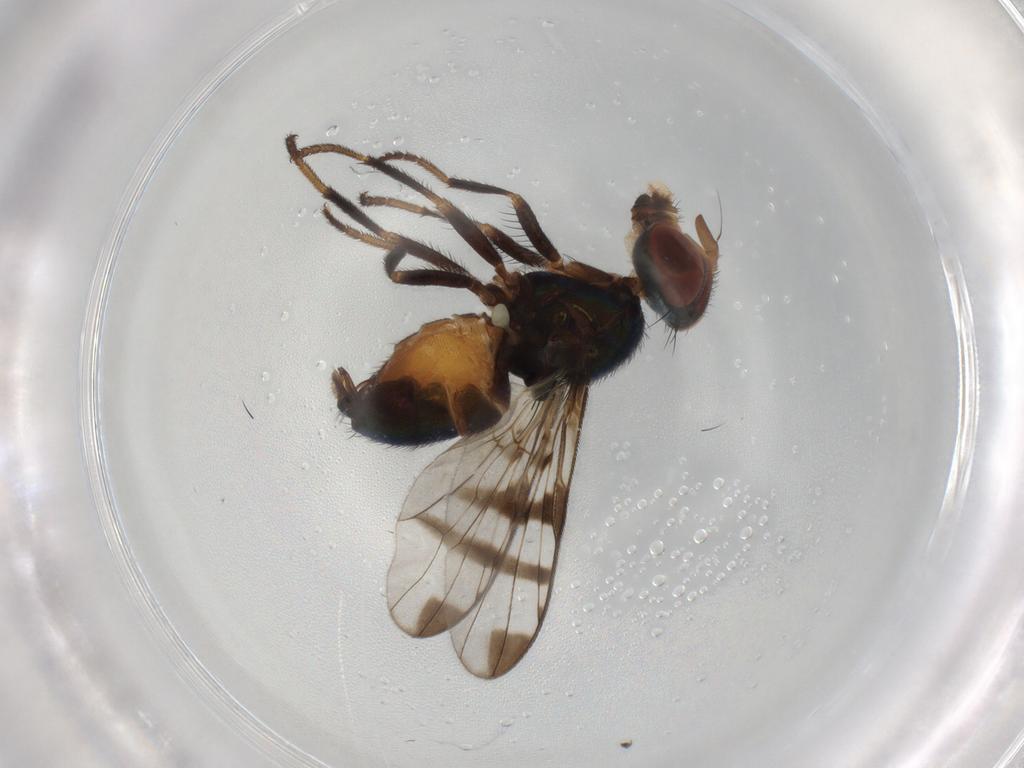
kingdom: Animalia
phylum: Arthropoda
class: Insecta
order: Diptera
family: Platystomatidae
